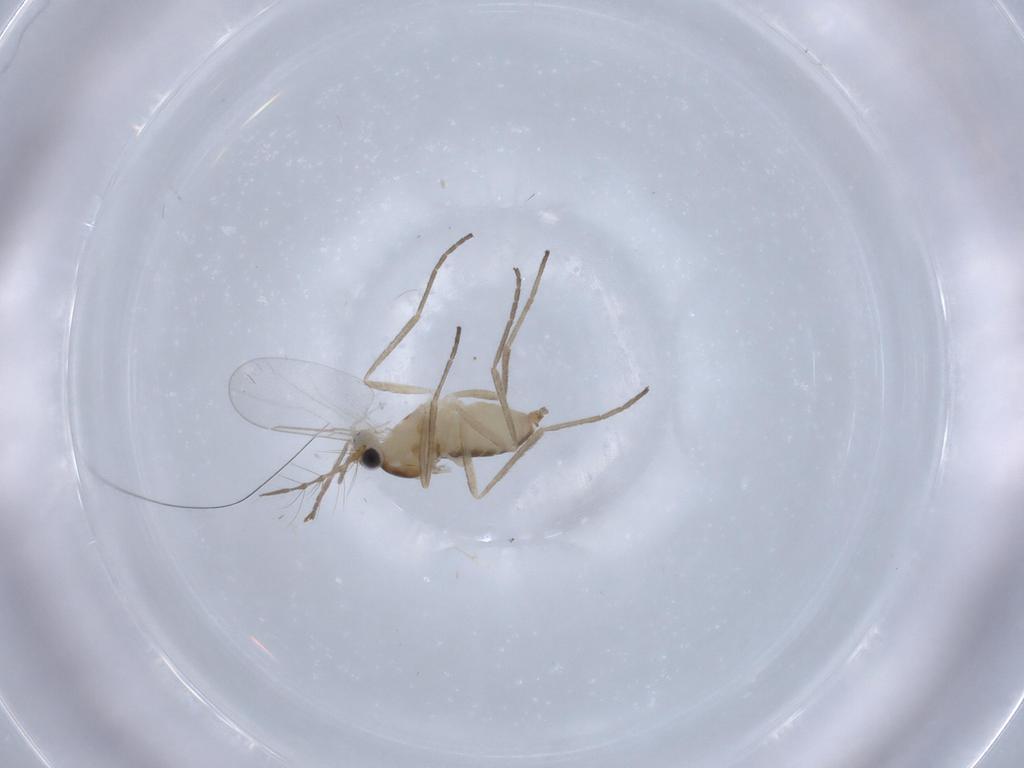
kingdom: Animalia
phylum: Arthropoda
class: Insecta
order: Diptera
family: Cecidomyiidae
